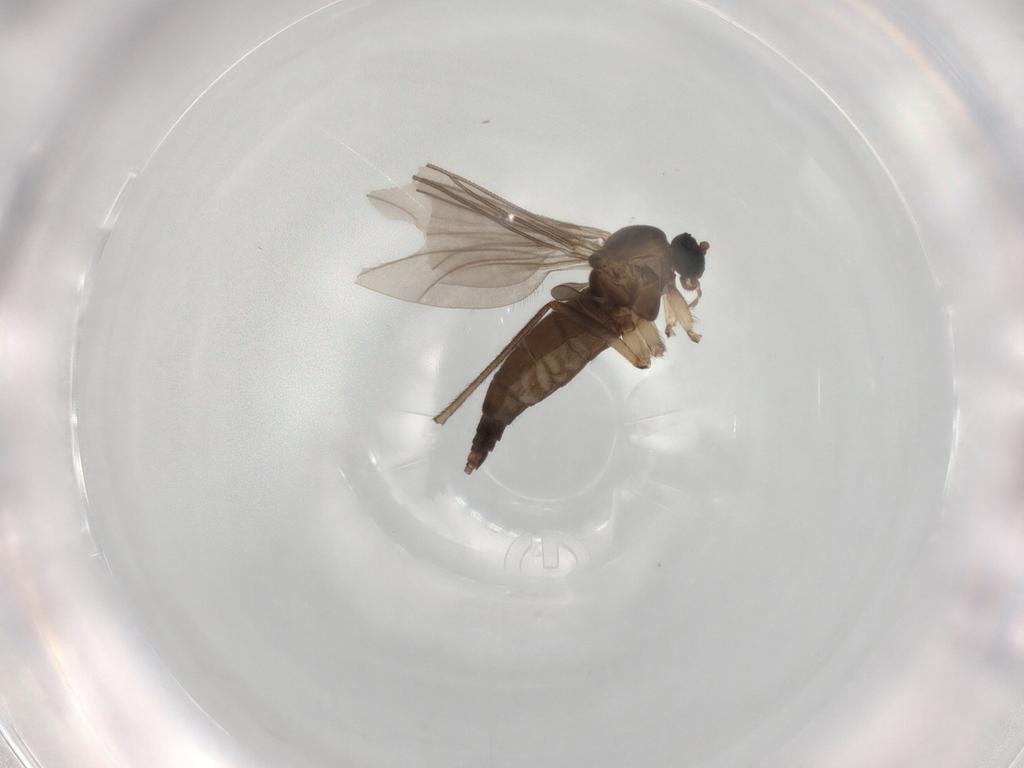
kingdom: Animalia
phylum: Arthropoda
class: Insecta
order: Diptera
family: Sciaridae
